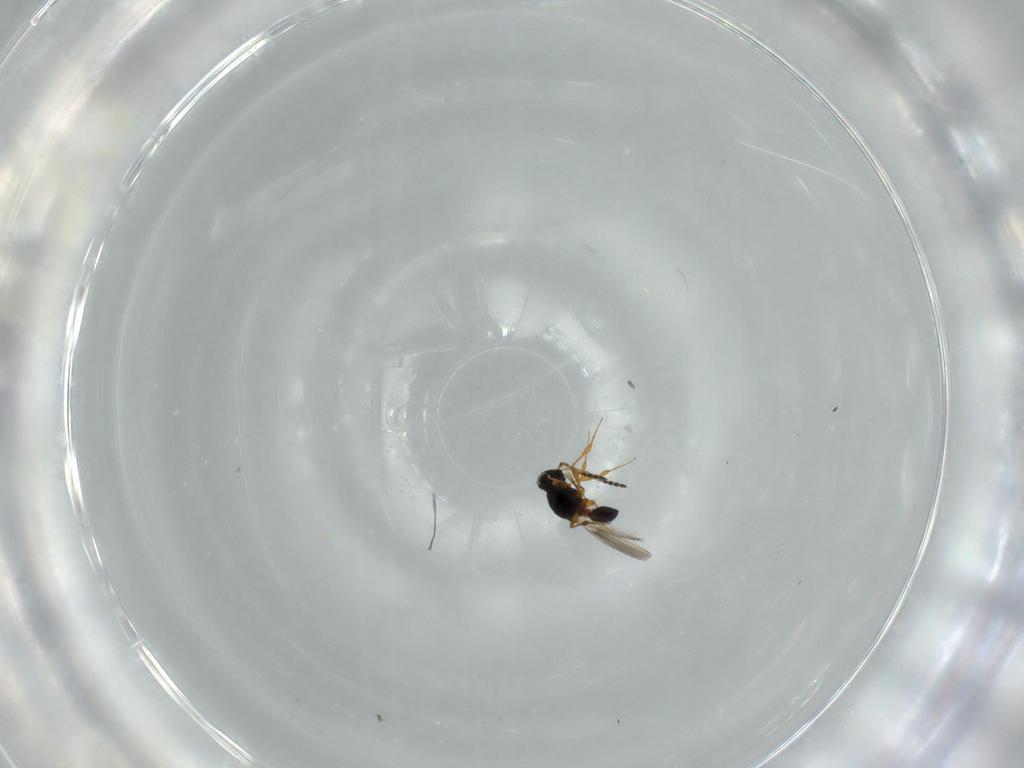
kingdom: Animalia
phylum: Arthropoda
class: Insecta
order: Hymenoptera
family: Platygastridae
